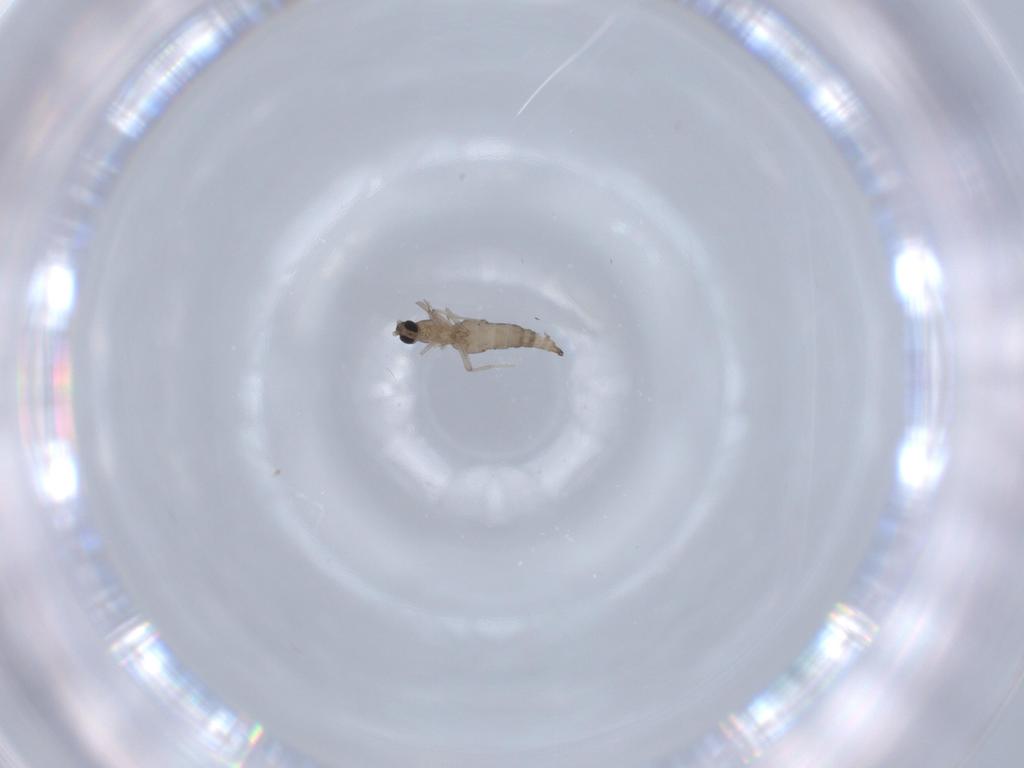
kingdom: Animalia
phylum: Arthropoda
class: Insecta
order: Diptera
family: Cecidomyiidae
